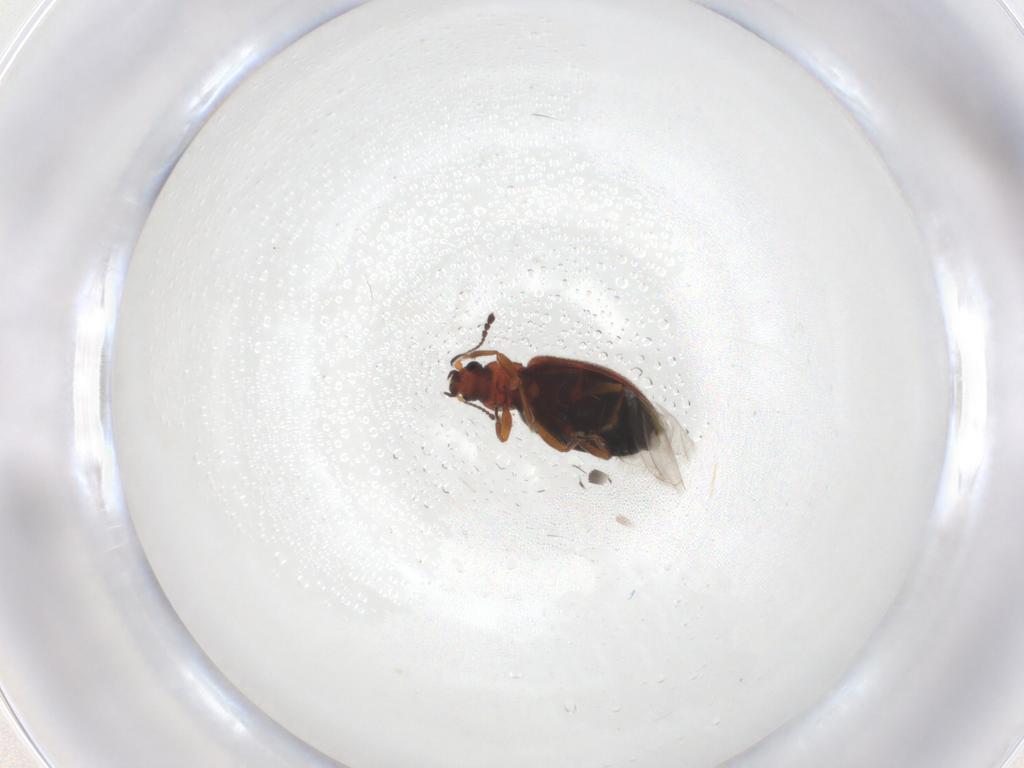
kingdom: Animalia
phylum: Arthropoda
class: Insecta
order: Coleoptera
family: Latridiidae
